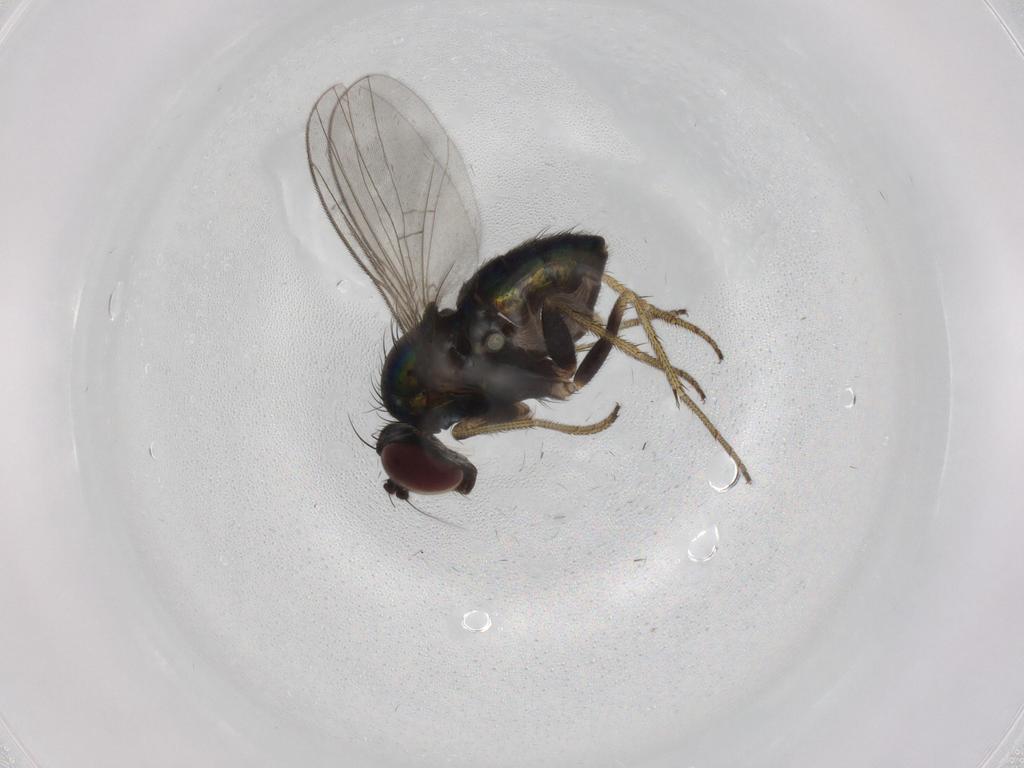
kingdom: Animalia
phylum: Arthropoda
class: Insecta
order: Diptera
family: Dolichopodidae
